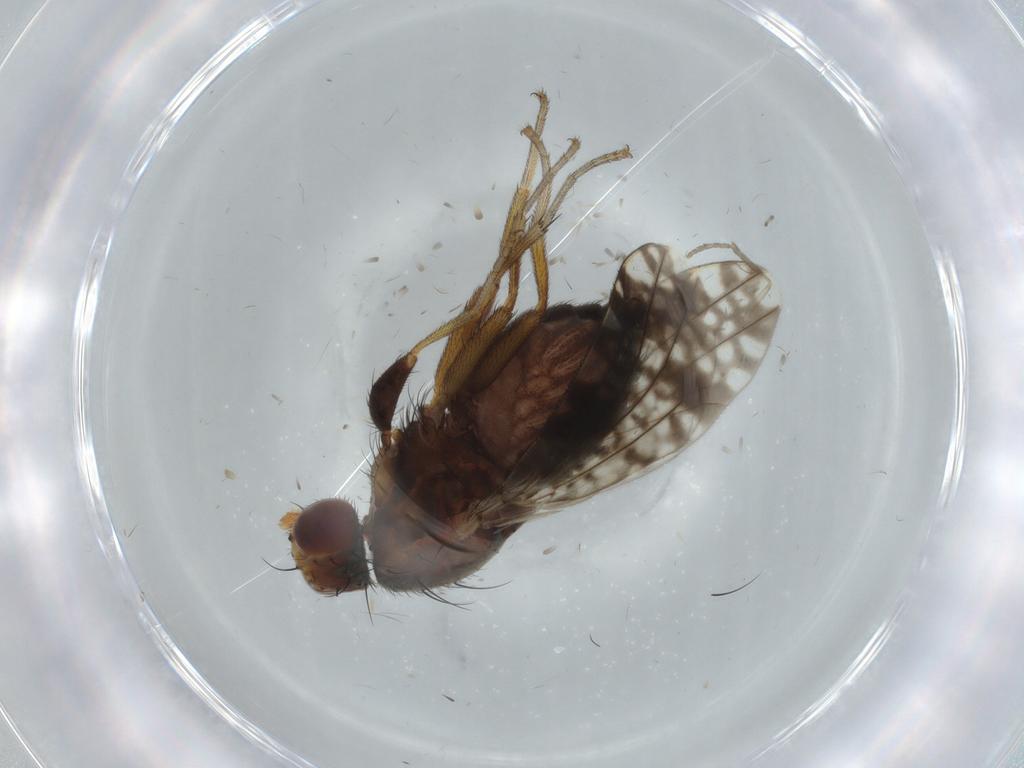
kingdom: Animalia
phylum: Arthropoda
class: Insecta
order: Diptera
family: Tephritidae
